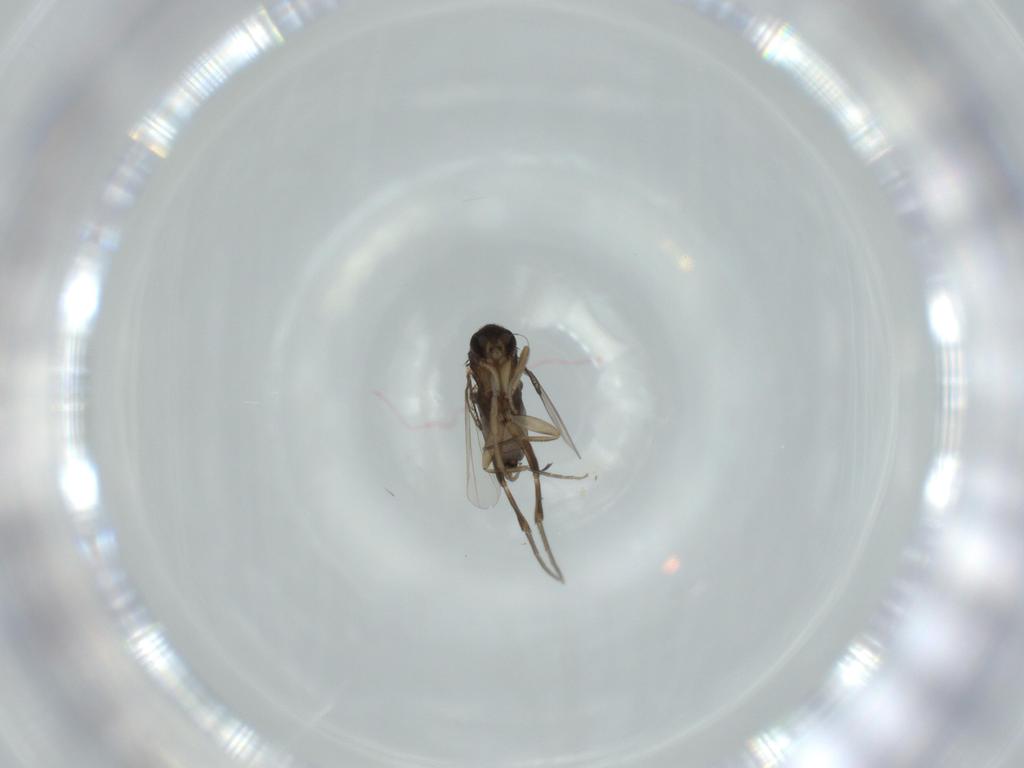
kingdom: Animalia
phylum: Arthropoda
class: Insecta
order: Diptera
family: Phoridae
